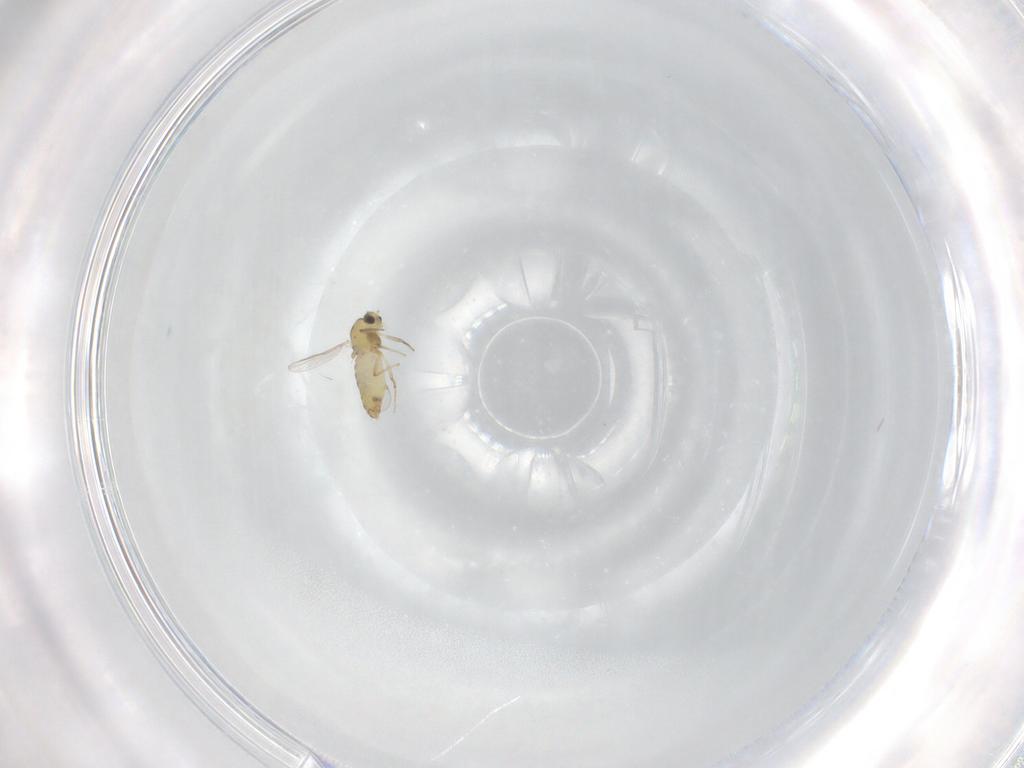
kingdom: Animalia
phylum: Arthropoda
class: Insecta
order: Diptera
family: Chironomidae
